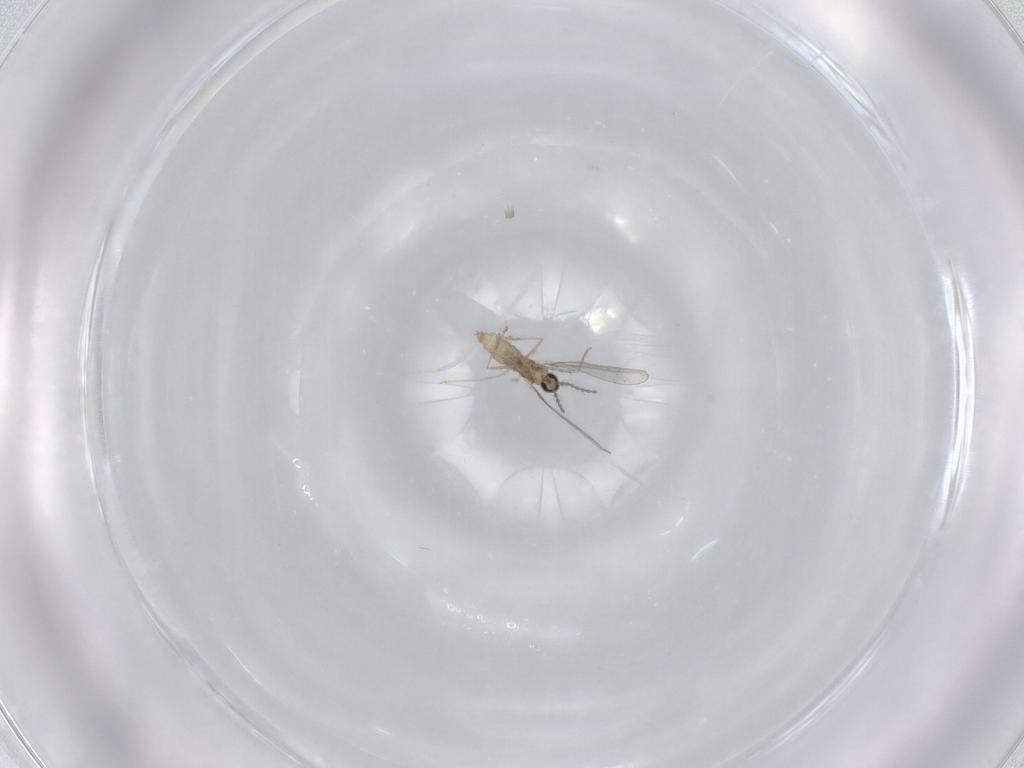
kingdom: Animalia
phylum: Arthropoda
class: Insecta
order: Diptera
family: Cecidomyiidae
